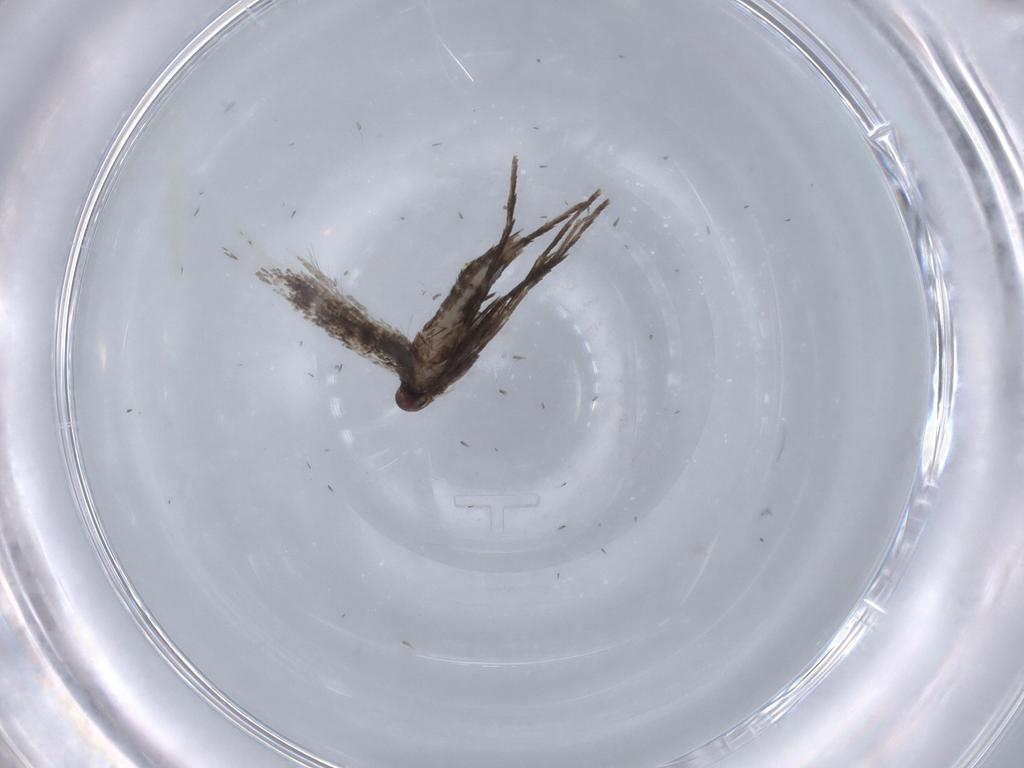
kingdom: Animalia
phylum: Arthropoda
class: Insecta
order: Lepidoptera
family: Gracillariidae
